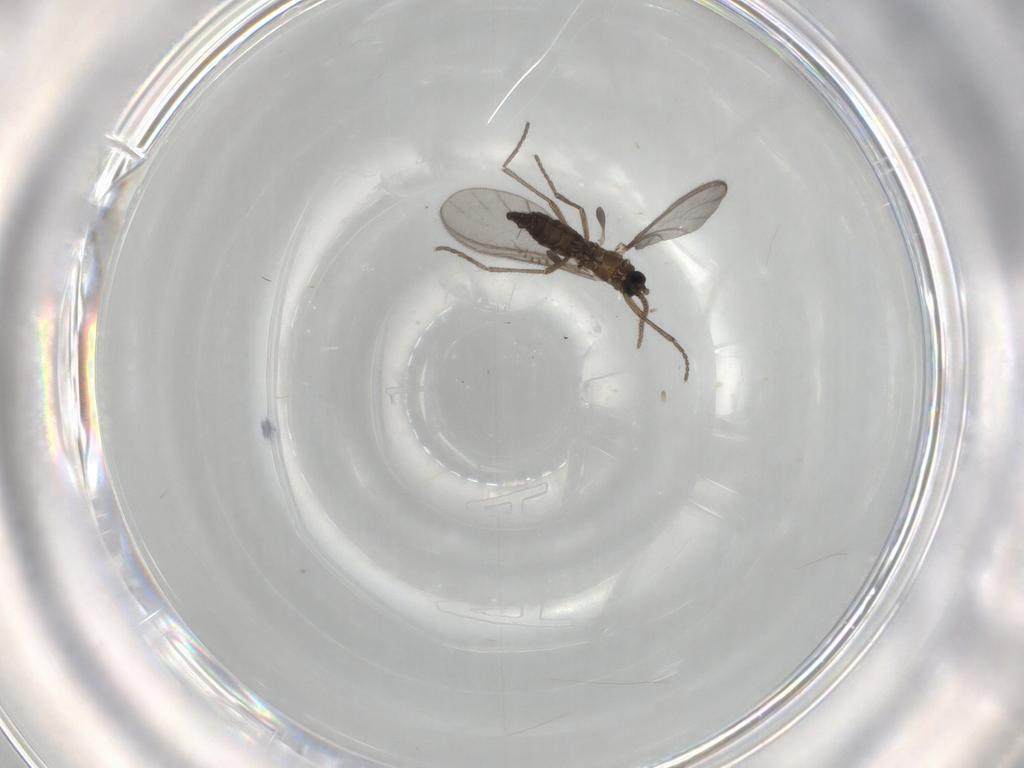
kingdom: Animalia
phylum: Arthropoda
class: Insecta
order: Diptera
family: Sciaridae
